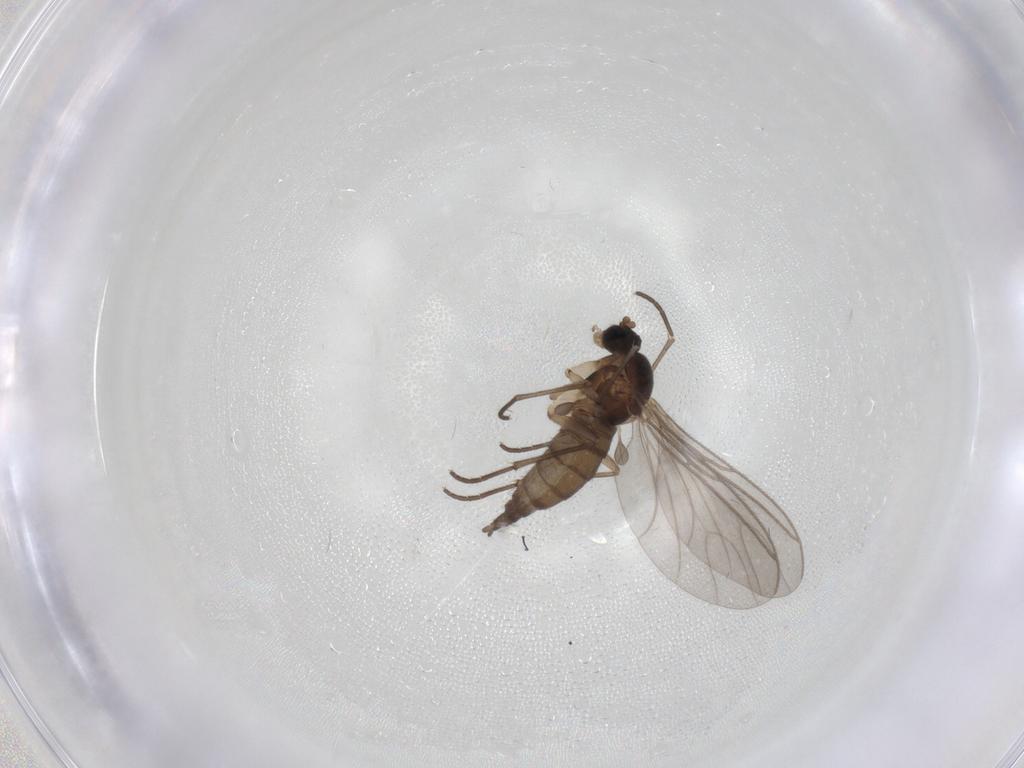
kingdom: Animalia
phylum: Arthropoda
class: Insecta
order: Diptera
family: Sciaridae
